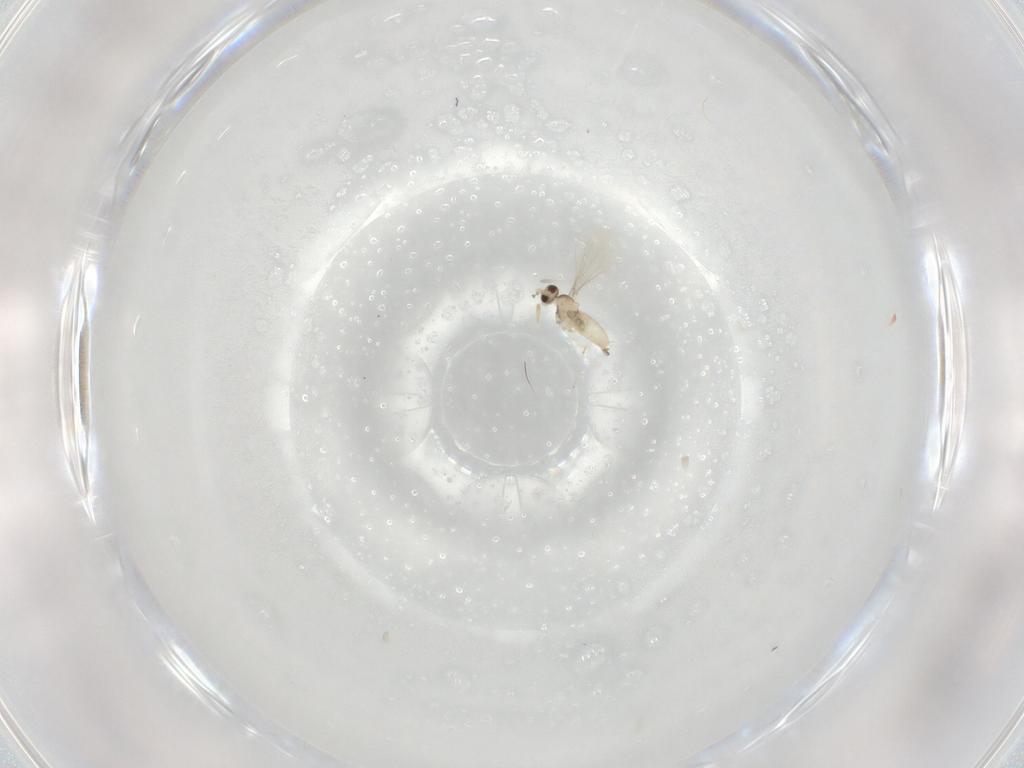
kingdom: Animalia
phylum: Arthropoda
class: Insecta
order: Diptera
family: Cecidomyiidae
